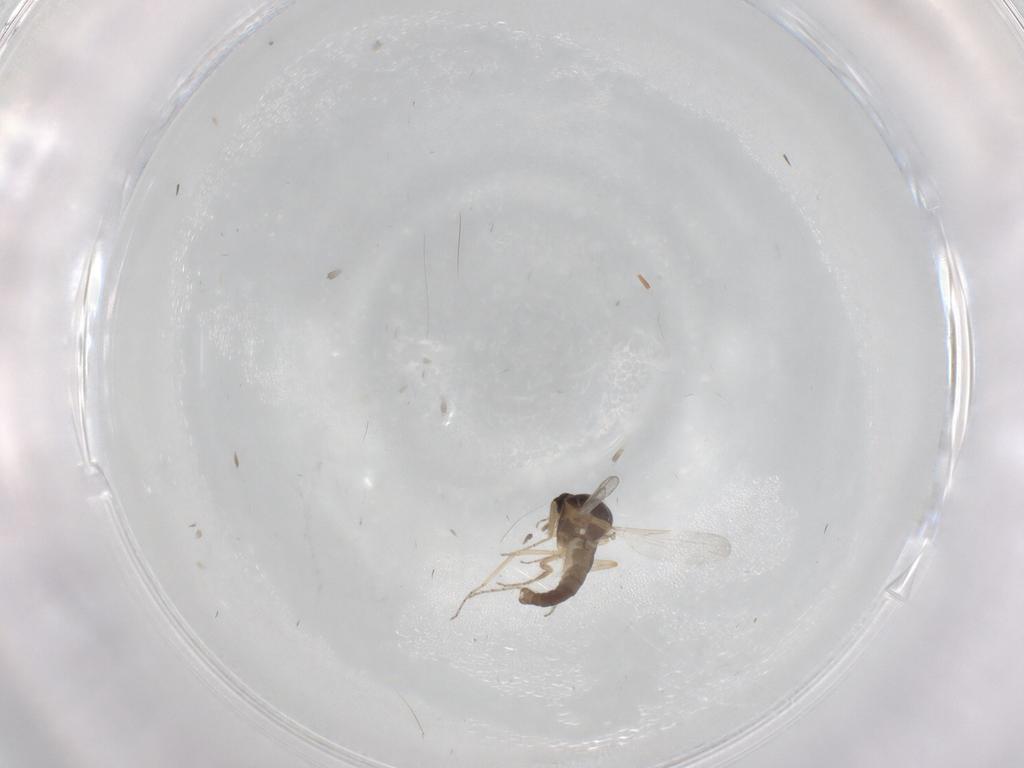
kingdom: Animalia
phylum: Arthropoda
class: Insecta
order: Diptera
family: Ceratopogonidae
